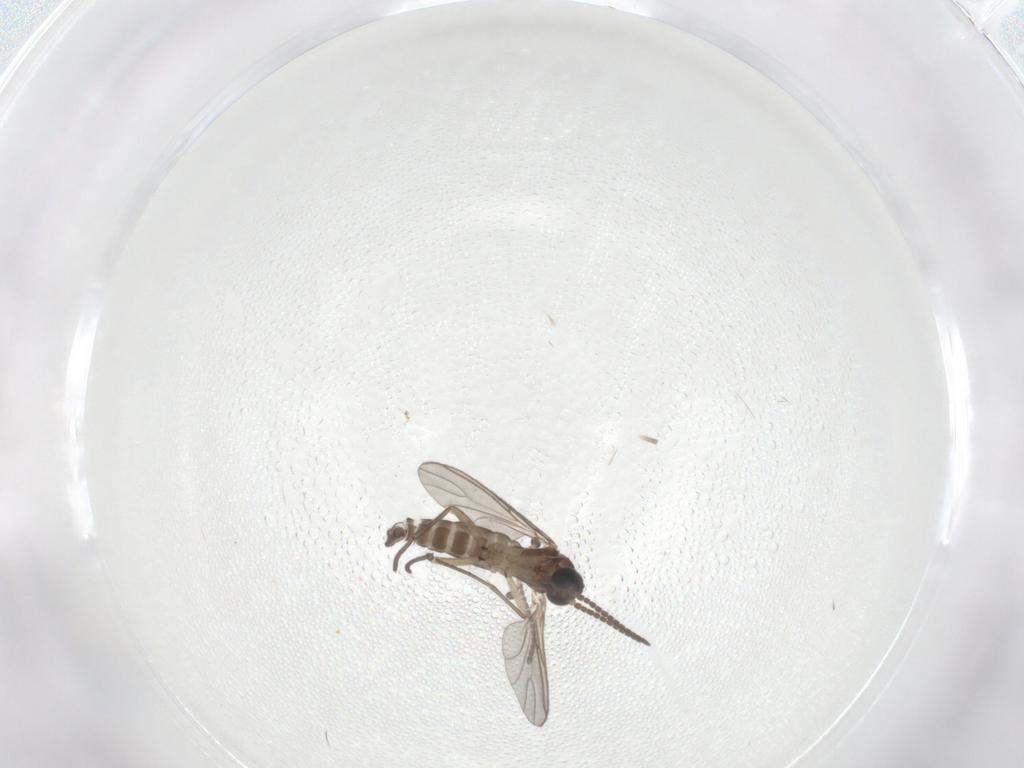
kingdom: Animalia
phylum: Arthropoda
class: Insecta
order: Diptera
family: Sciaridae
